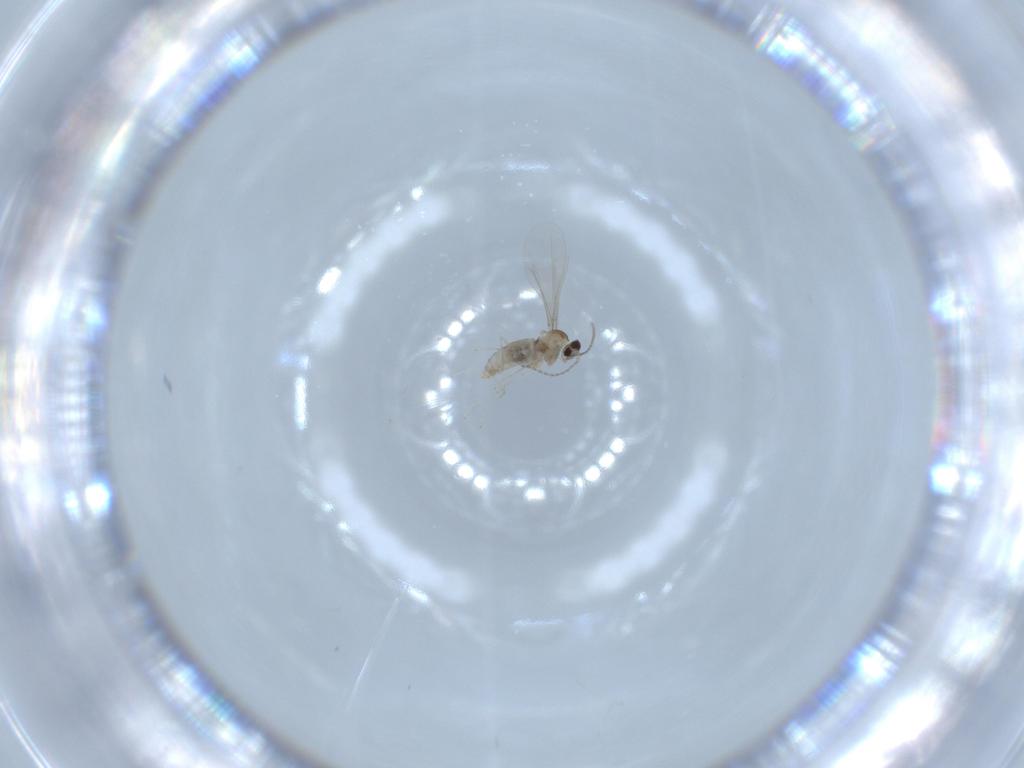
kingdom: Animalia
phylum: Arthropoda
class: Insecta
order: Diptera
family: Cecidomyiidae
